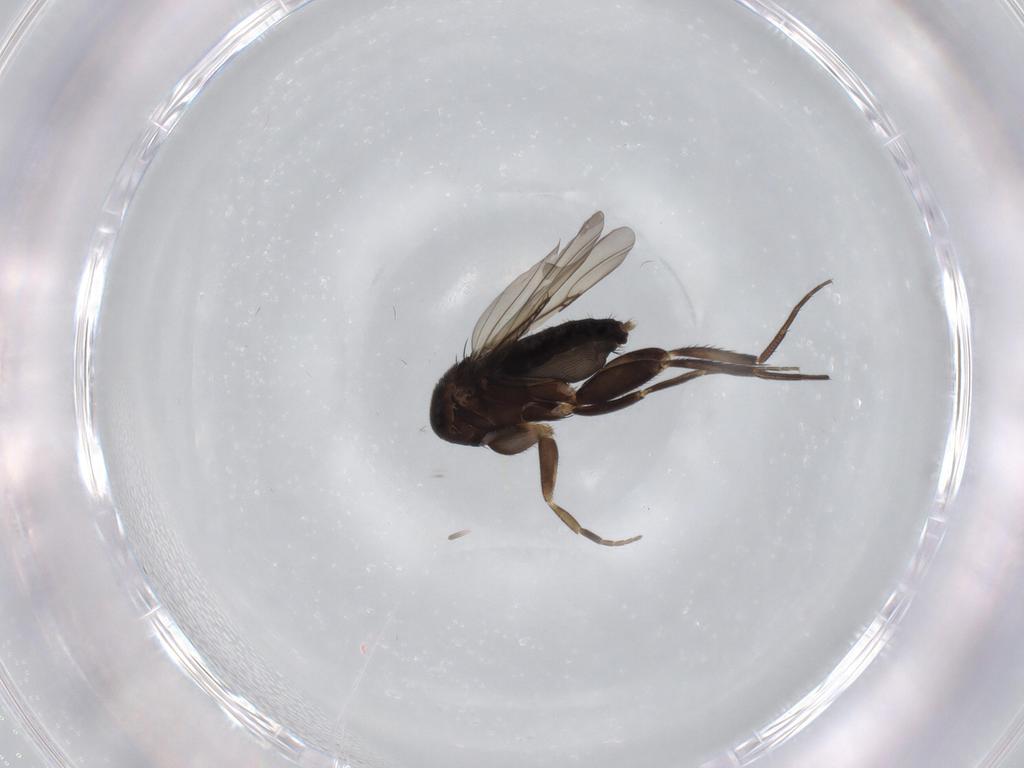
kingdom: Animalia
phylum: Arthropoda
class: Insecta
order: Diptera
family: Phoridae
